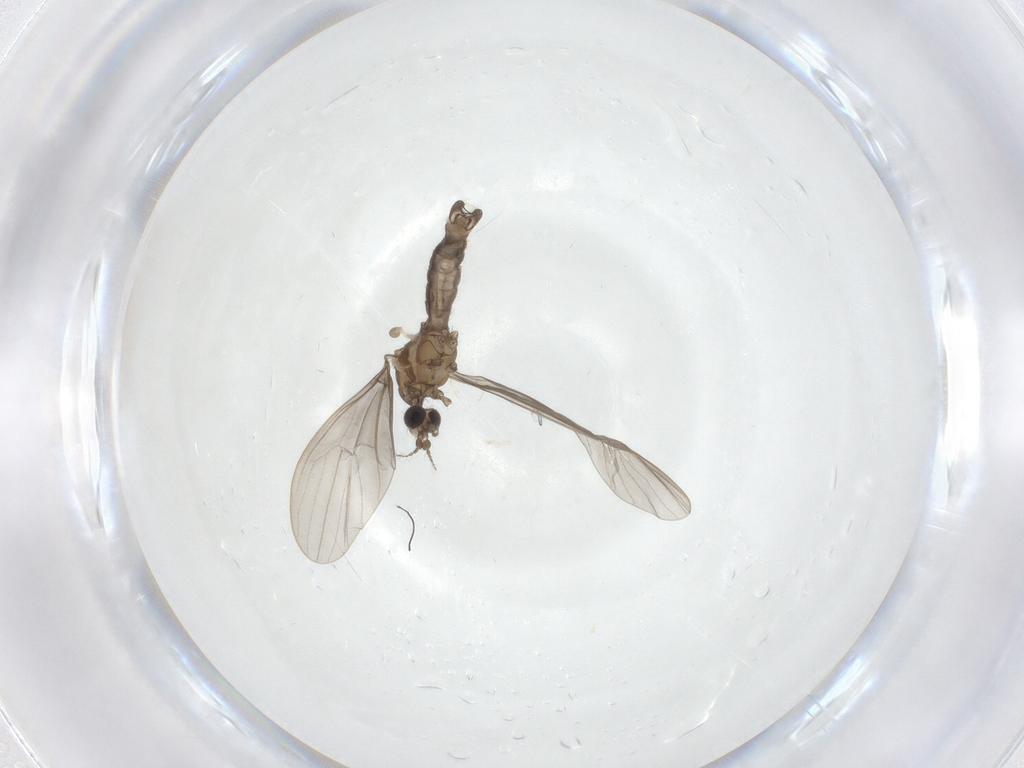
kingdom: Animalia
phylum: Arthropoda
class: Insecta
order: Diptera
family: Limoniidae
